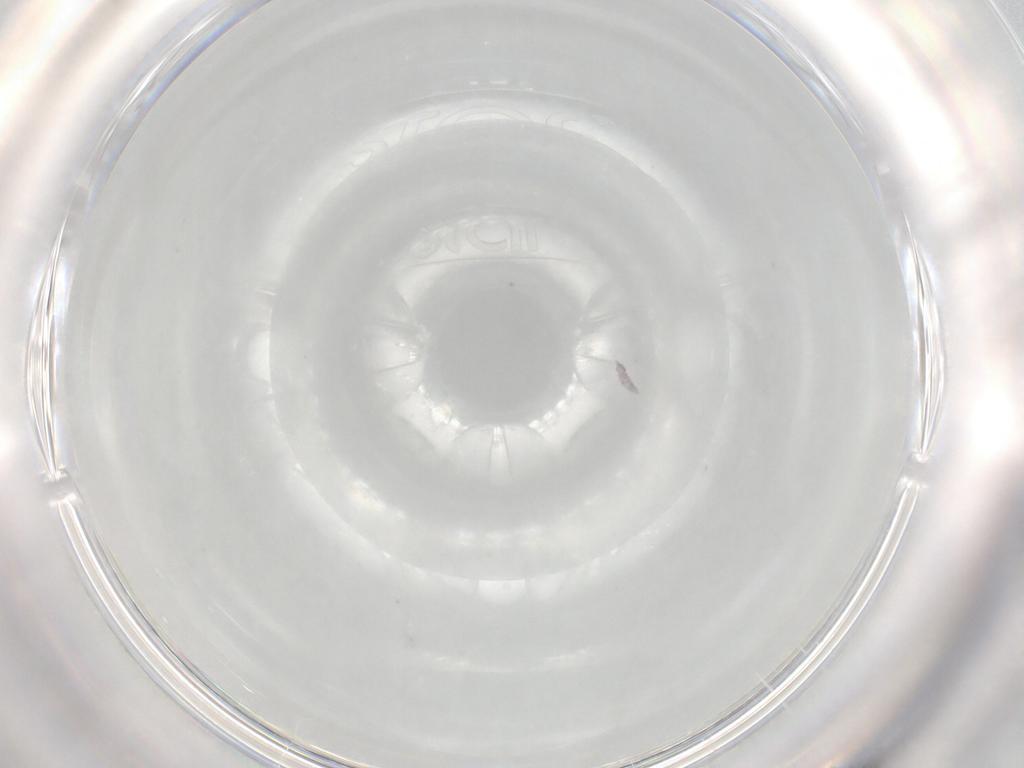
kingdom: Animalia
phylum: Arthropoda
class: Collembola
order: Poduromorpha
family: Neanuridae
